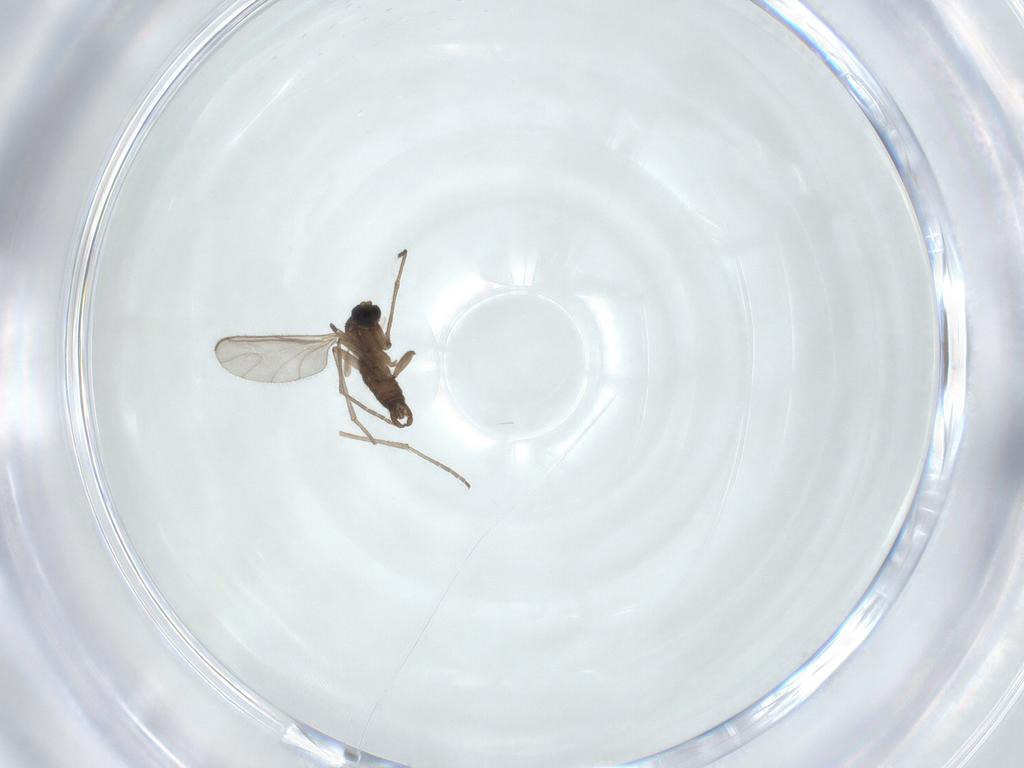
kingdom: Animalia
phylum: Arthropoda
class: Insecta
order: Diptera
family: Sciaridae
